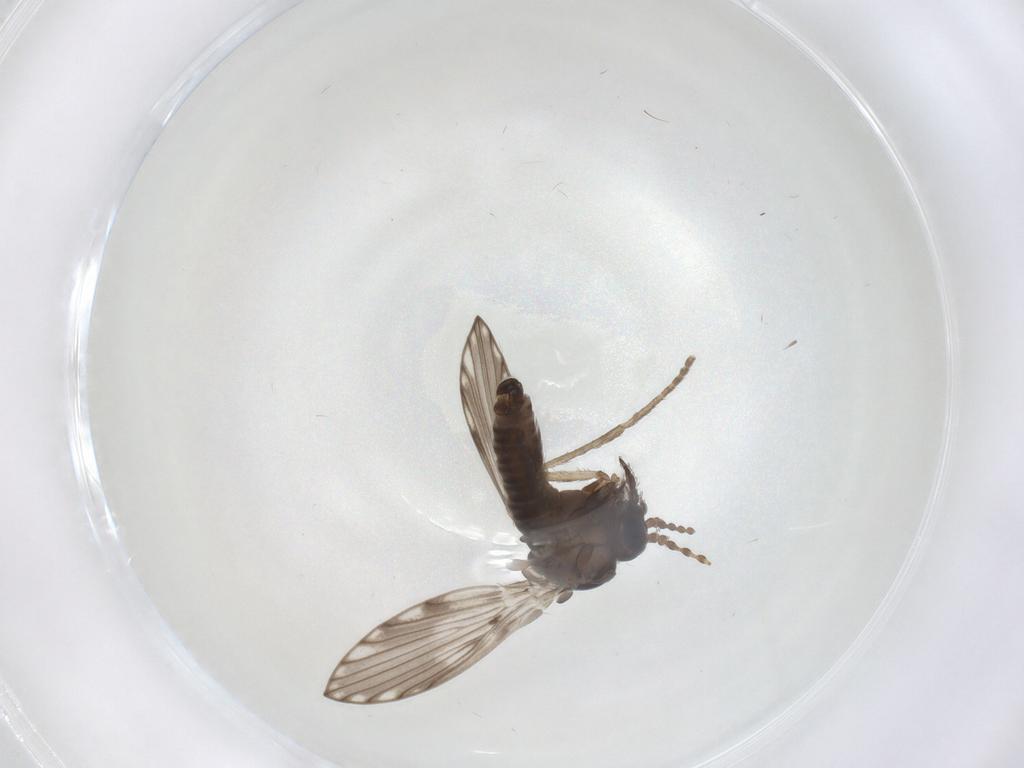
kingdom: Animalia
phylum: Arthropoda
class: Insecta
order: Diptera
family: Psychodidae
